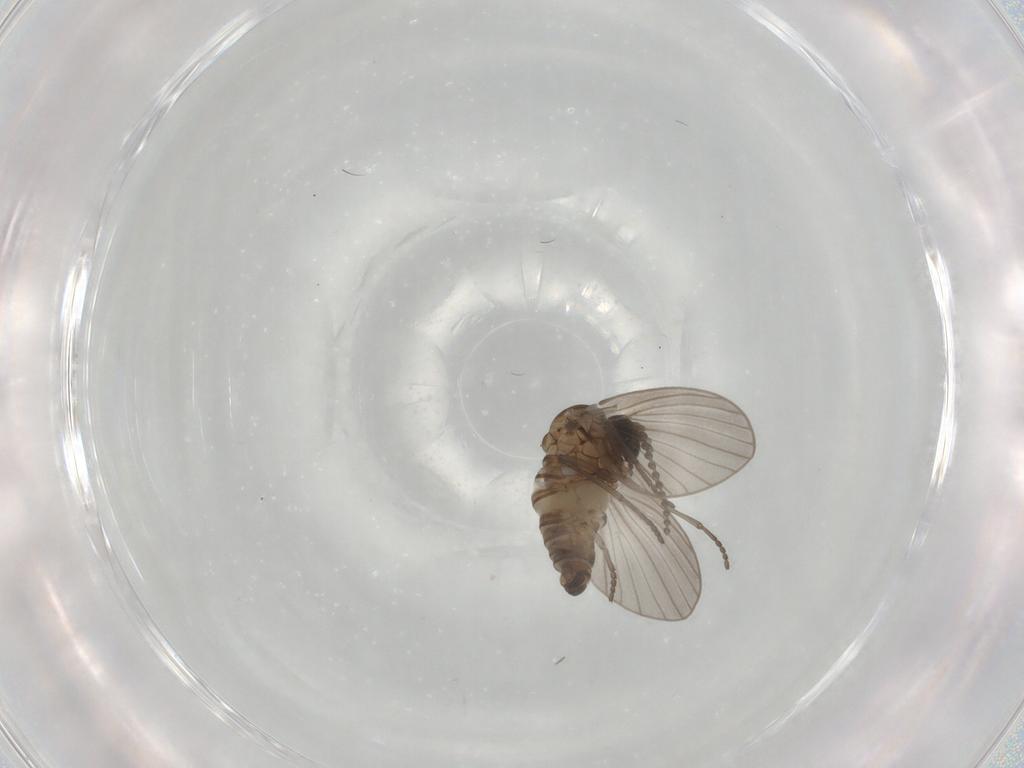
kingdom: Animalia
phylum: Arthropoda
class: Insecta
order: Diptera
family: Psychodidae
